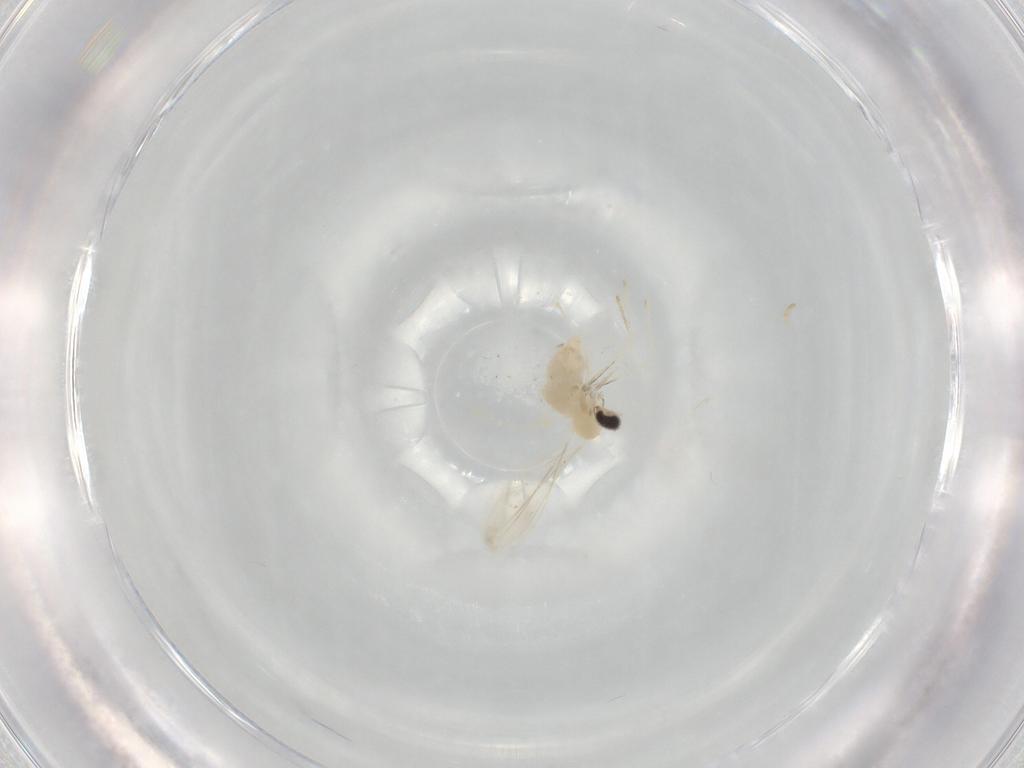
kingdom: Animalia
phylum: Arthropoda
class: Insecta
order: Diptera
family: Cecidomyiidae
